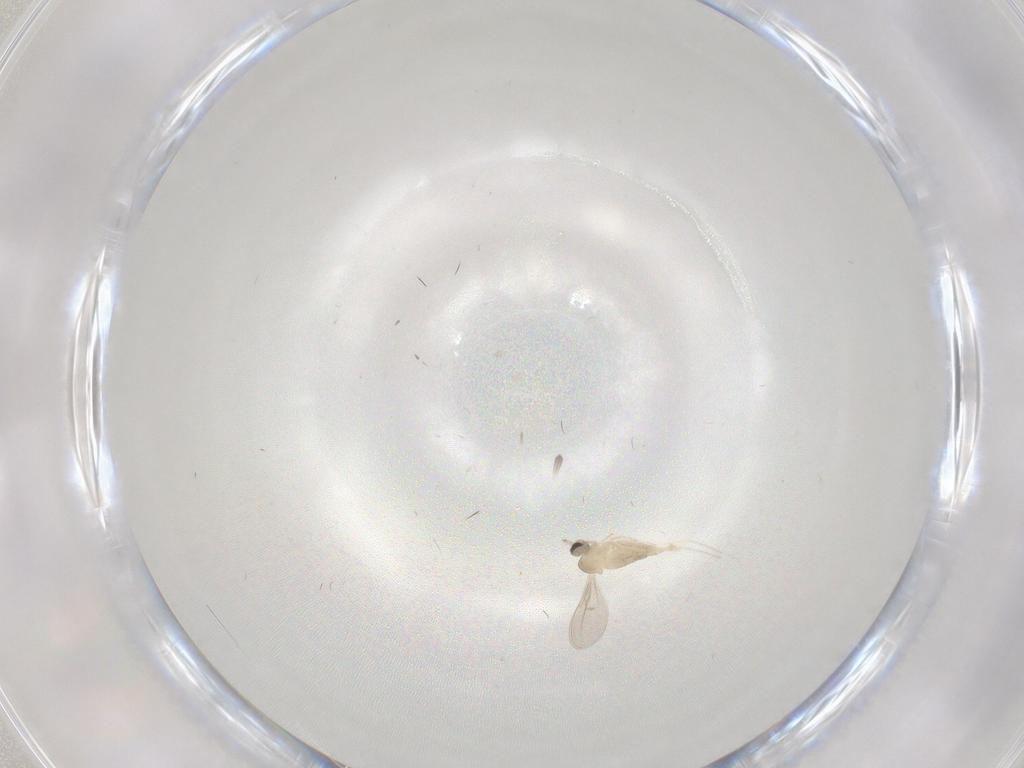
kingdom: Animalia
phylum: Arthropoda
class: Insecta
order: Diptera
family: Cecidomyiidae
